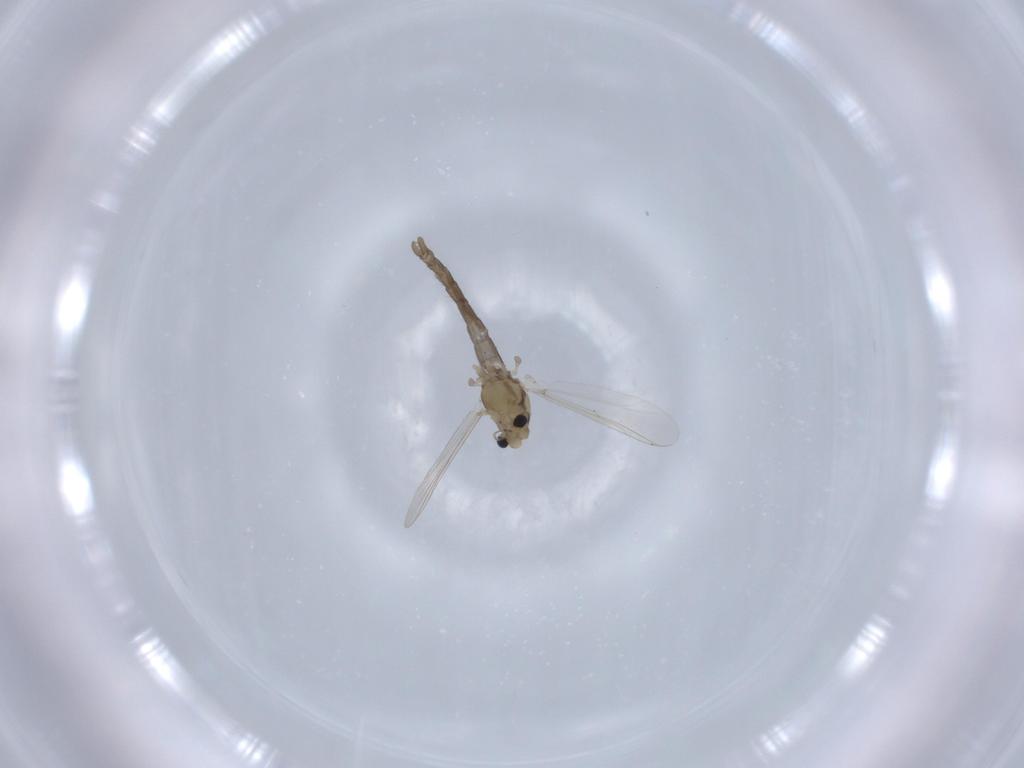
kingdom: Animalia
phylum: Arthropoda
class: Insecta
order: Diptera
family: Chironomidae
